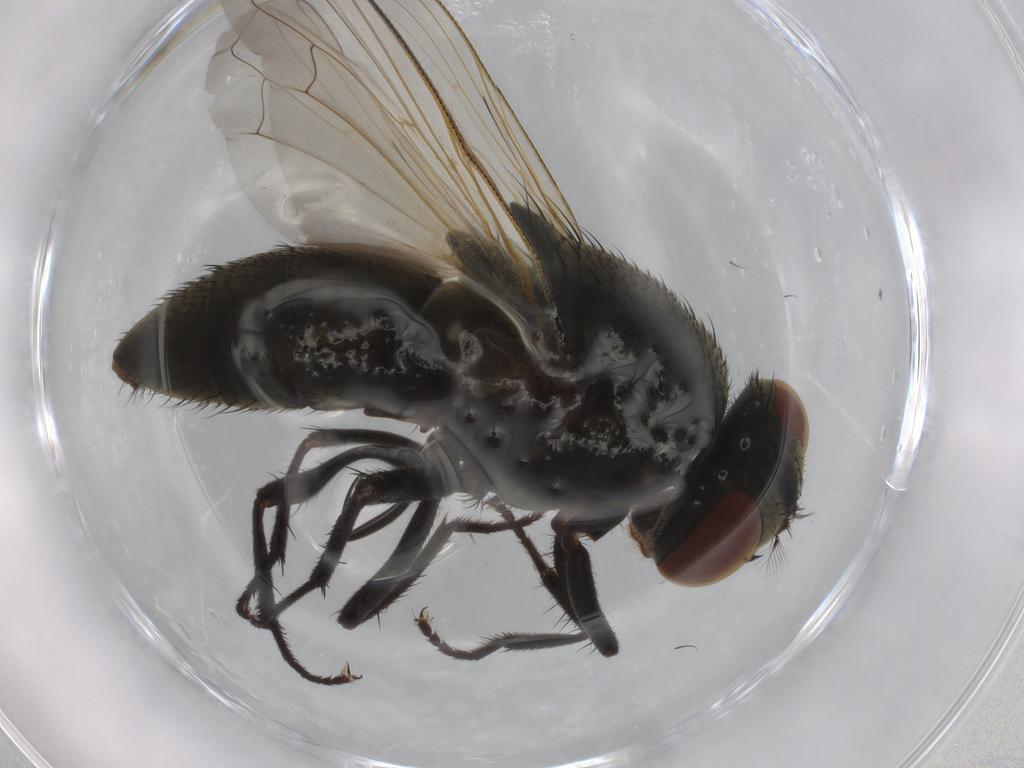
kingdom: Animalia
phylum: Arthropoda
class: Insecta
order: Diptera
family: Muscidae
